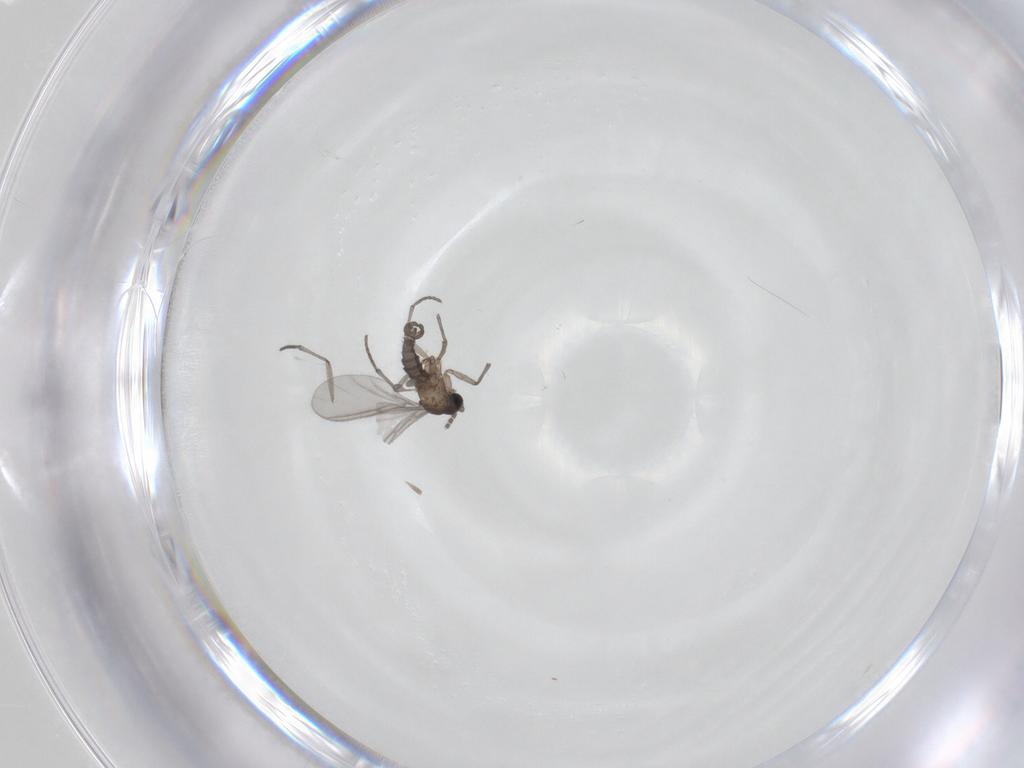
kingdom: Animalia
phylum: Arthropoda
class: Insecta
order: Diptera
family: Sciaridae
